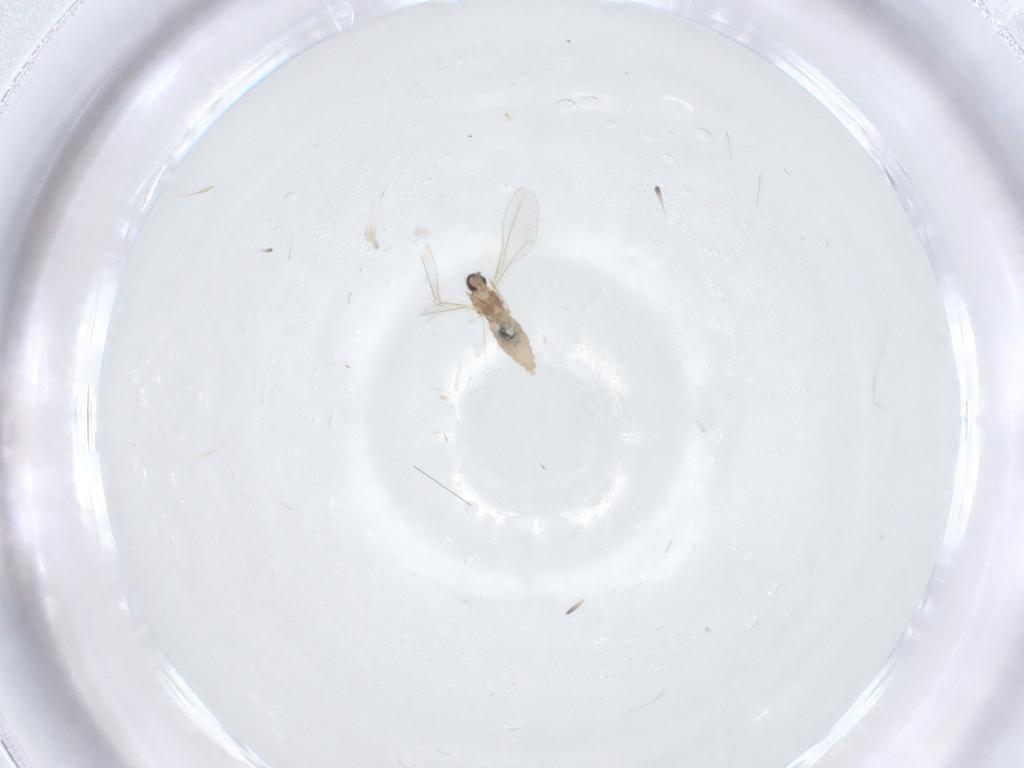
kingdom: Animalia
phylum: Arthropoda
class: Insecta
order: Diptera
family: Cecidomyiidae
